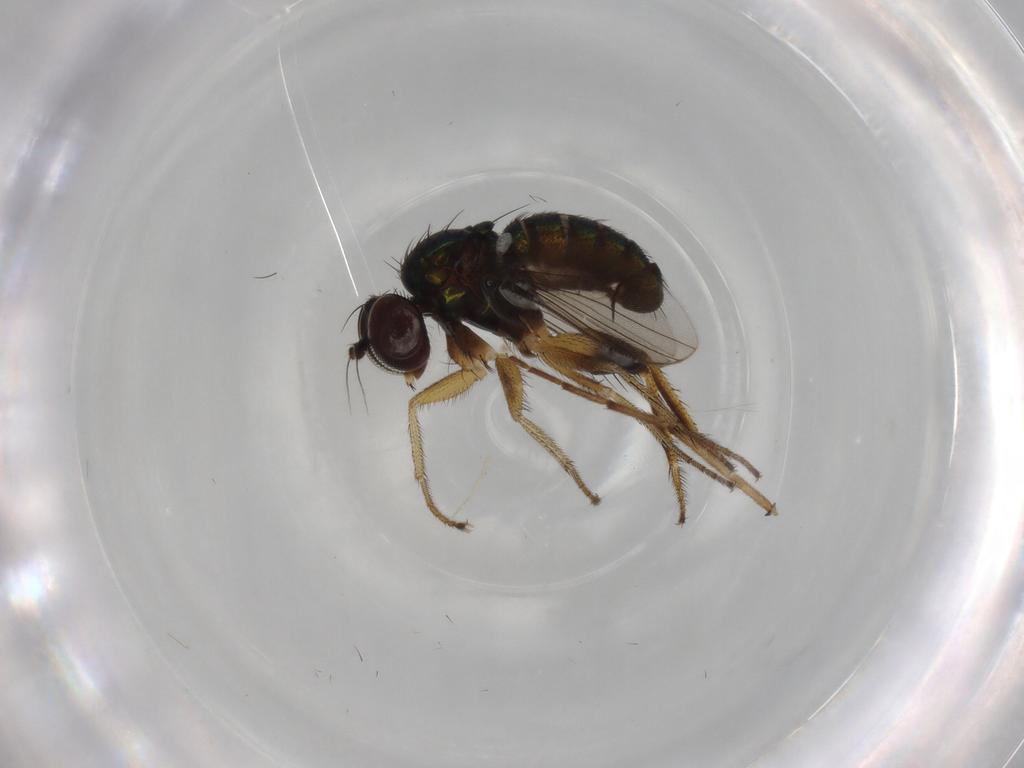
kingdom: Animalia
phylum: Arthropoda
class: Insecta
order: Diptera
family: Dolichopodidae
